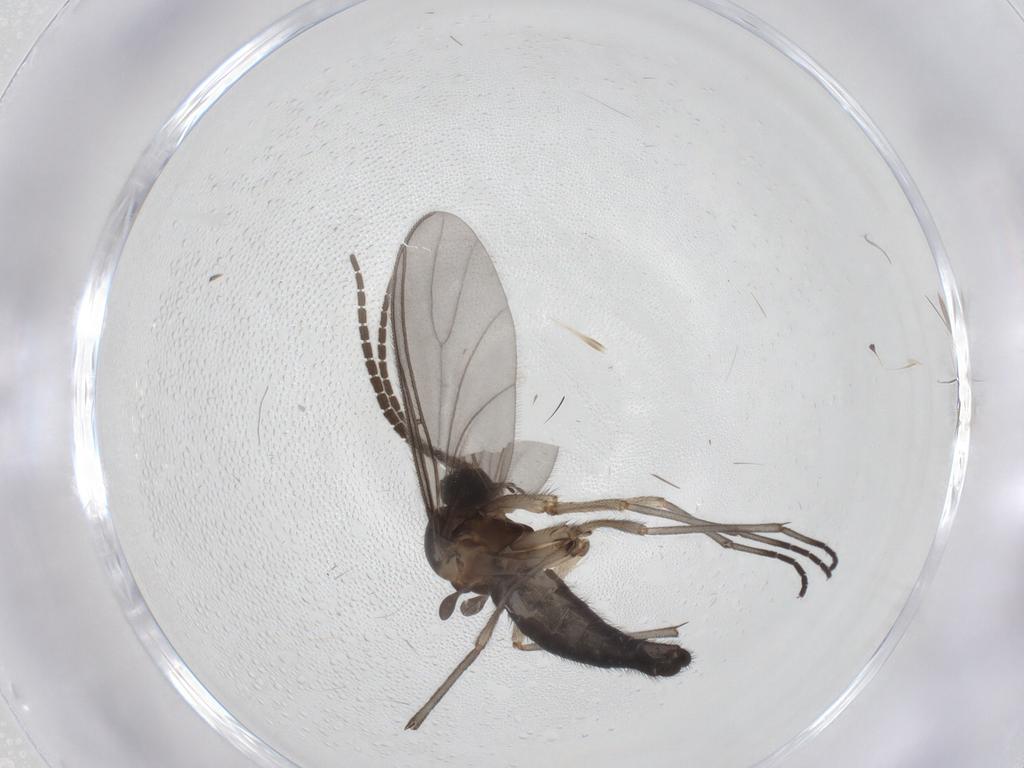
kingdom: Animalia
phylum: Arthropoda
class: Insecta
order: Diptera
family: Sciaridae
